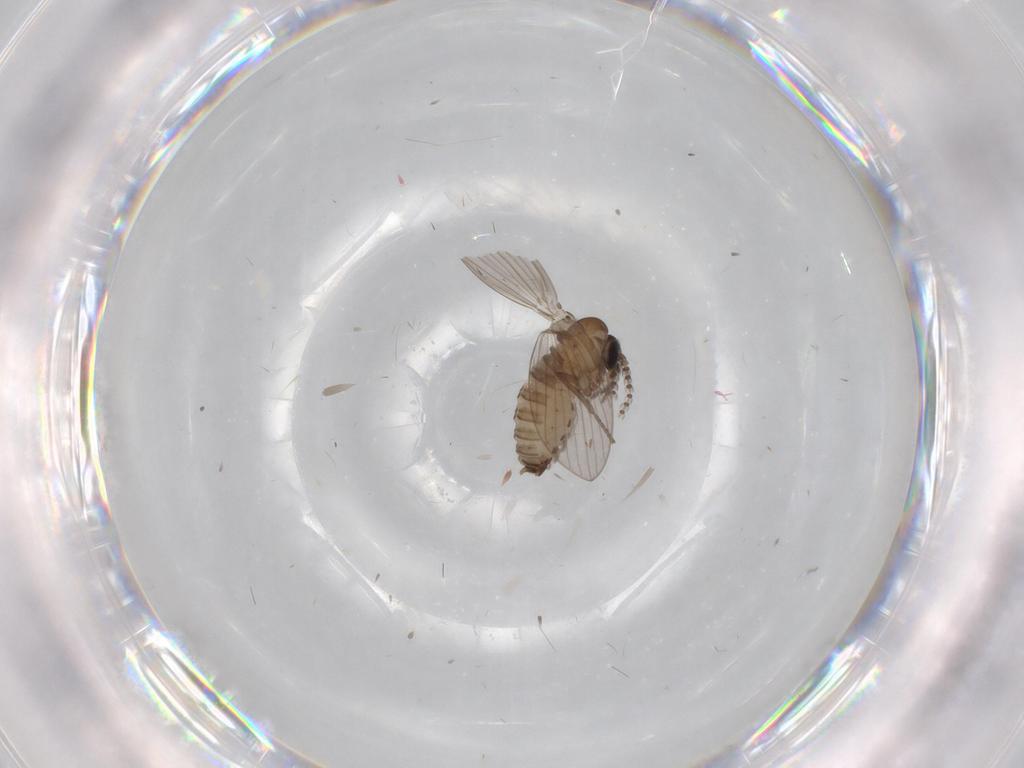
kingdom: Animalia
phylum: Arthropoda
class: Insecta
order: Diptera
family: Psychodidae
